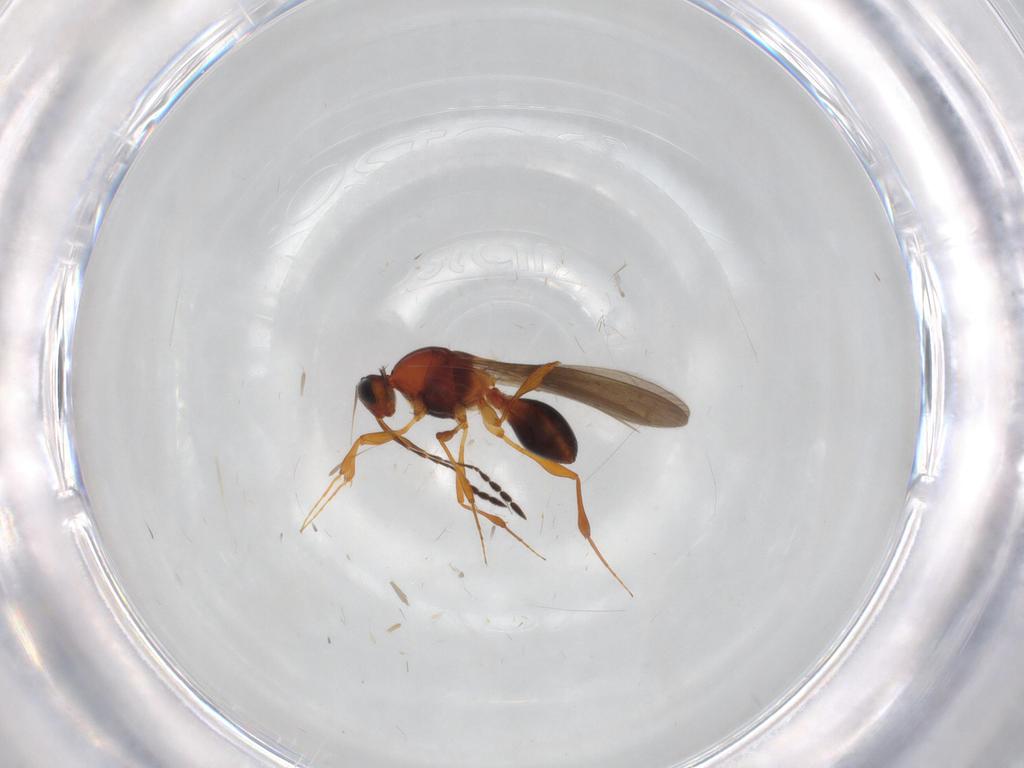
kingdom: Animalia
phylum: Arthropoda
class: Insecta
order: Hymenoptera
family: Platygastridae
